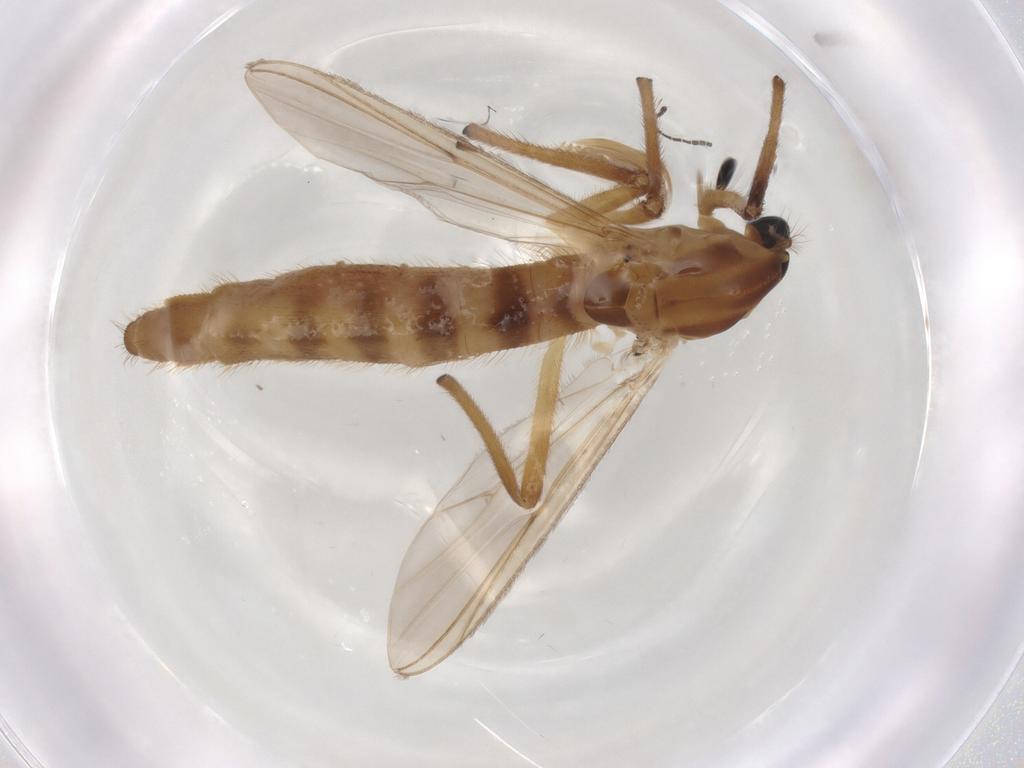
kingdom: Animalia
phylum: Arthropoda
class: Insecta
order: Diptera
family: Sciaridae
